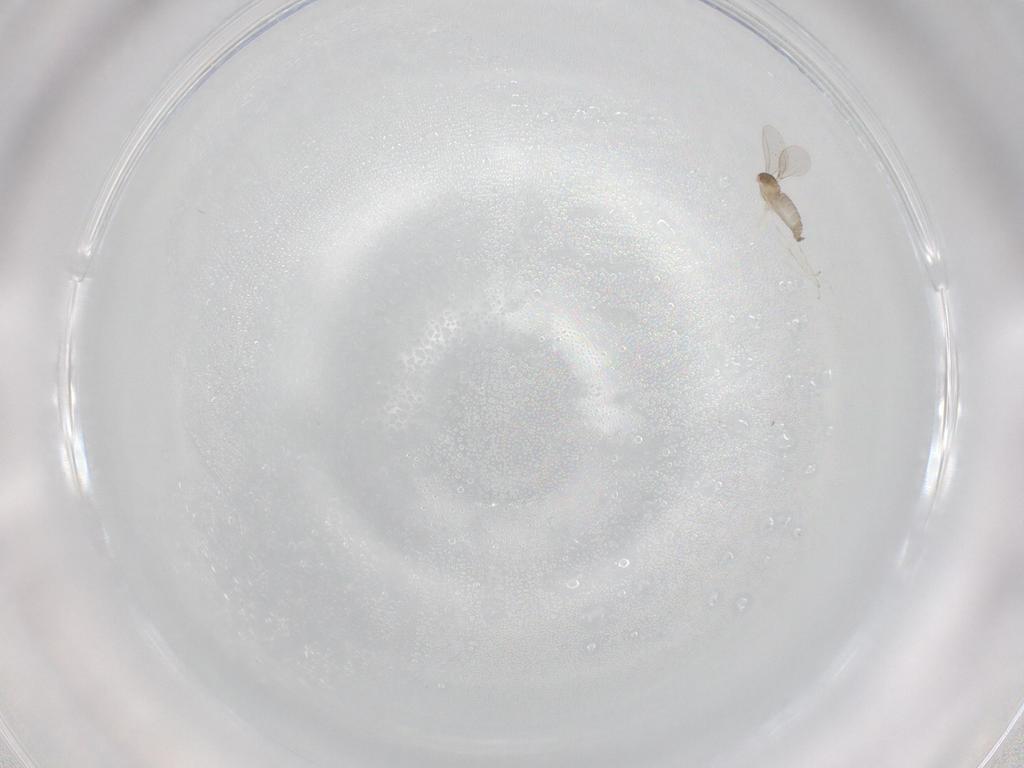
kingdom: Animalia
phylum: Arthropoda
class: Insecta
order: Diptera
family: Cecidomyiidae
